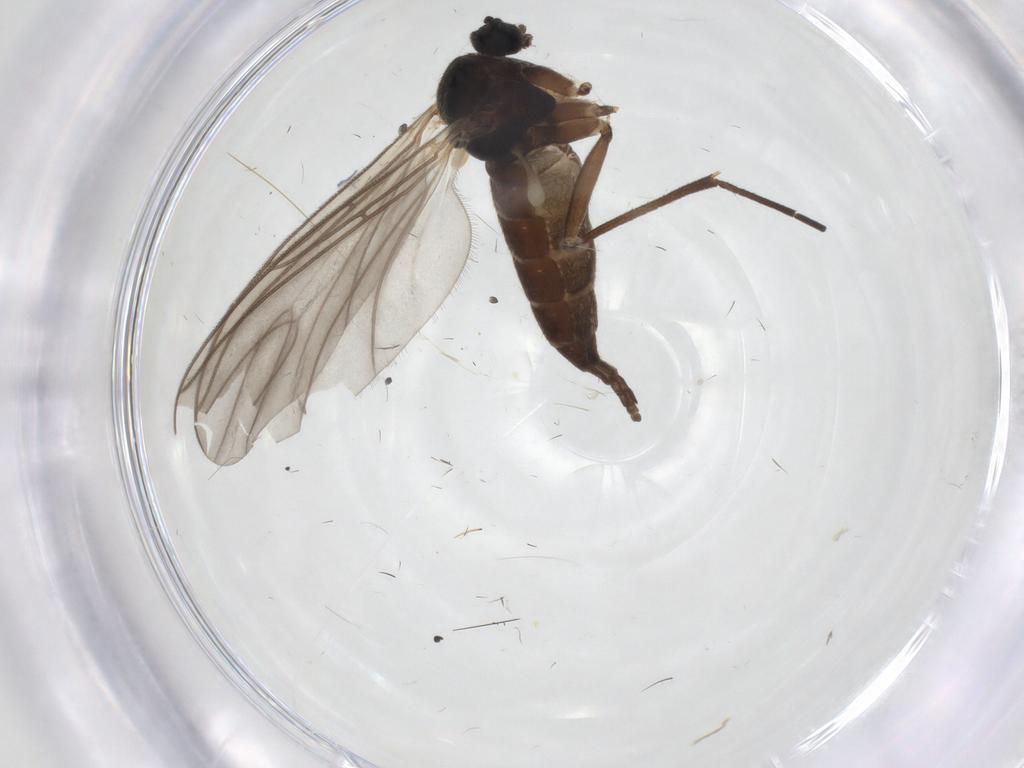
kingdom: Animalia
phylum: Arthropoda
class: Insecta
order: Diptera
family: Sciaridae
